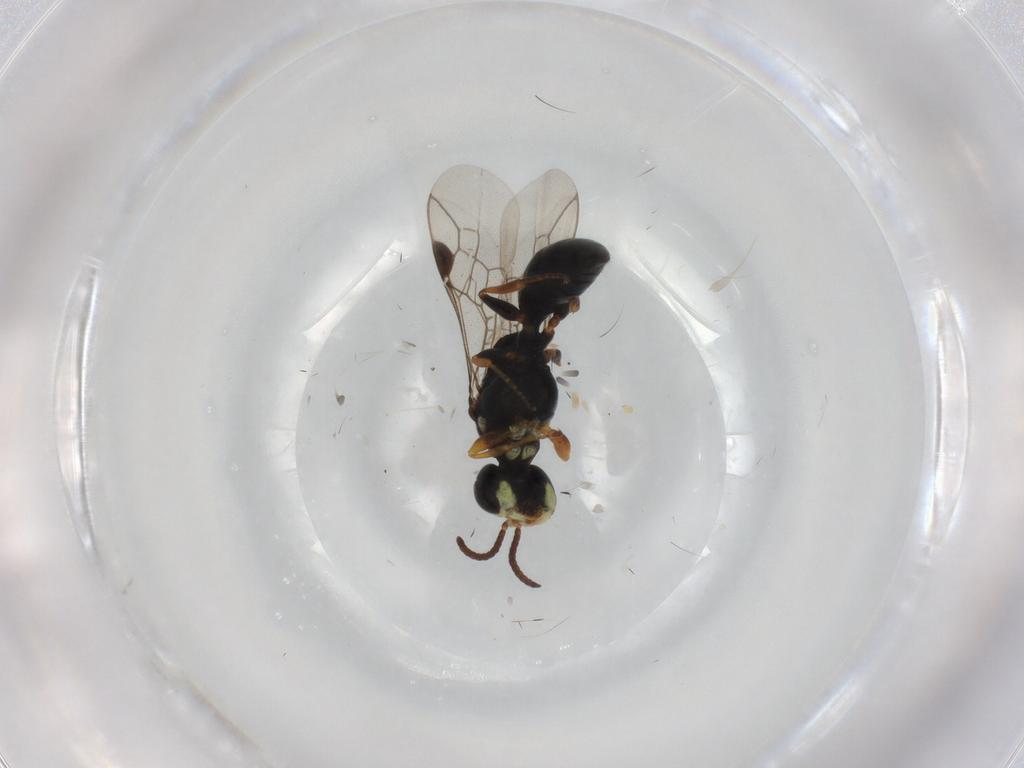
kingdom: Animalia
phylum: Arthropoda
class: Insecta
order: Hymenoptera
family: Pemphredonidae
